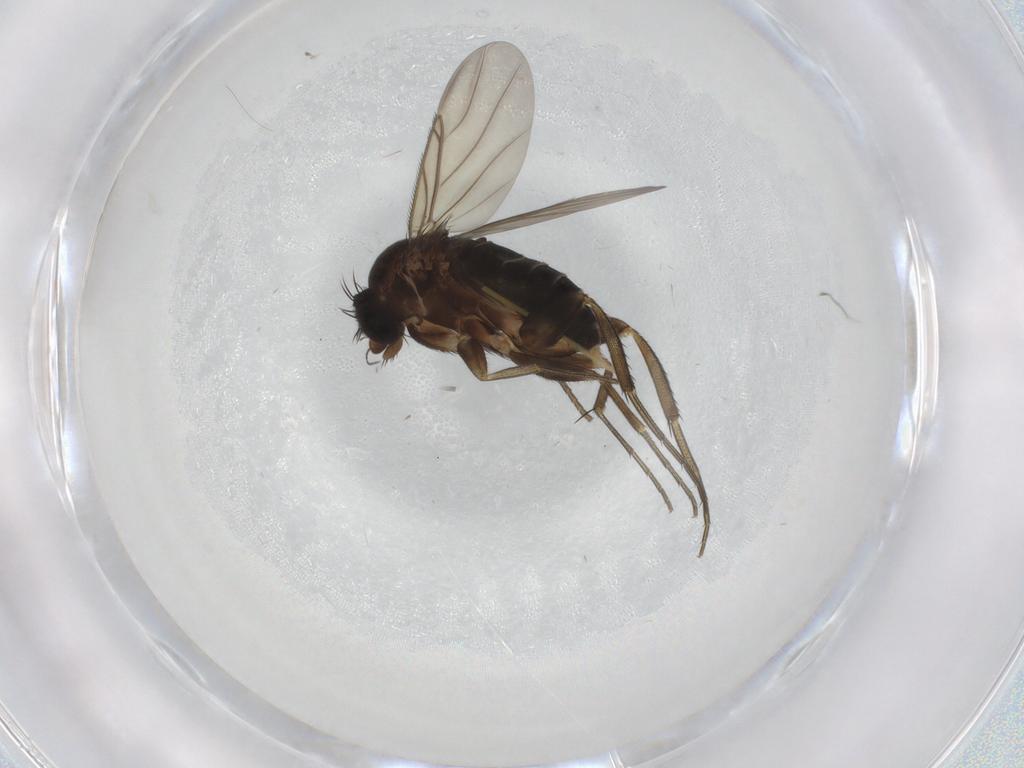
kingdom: Animalia
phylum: Arthropoda
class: Insecta
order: Diptera
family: Phoridae
